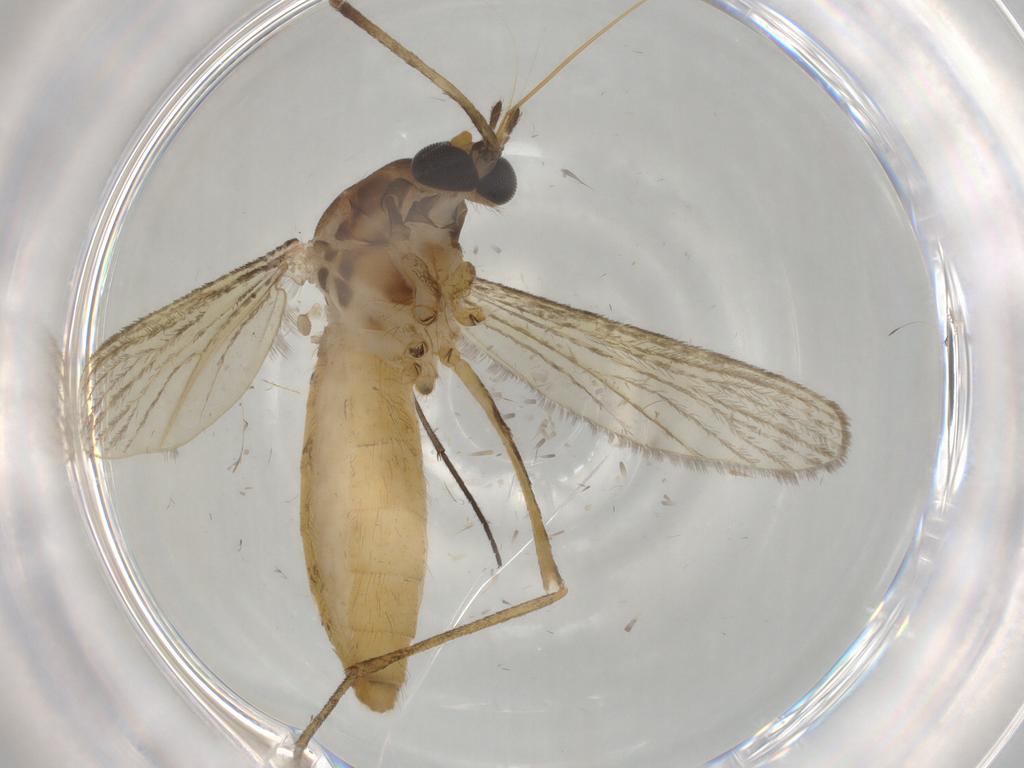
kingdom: Animalia
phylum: Arthropoda
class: Insecta
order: Diptera
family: Culicidae
